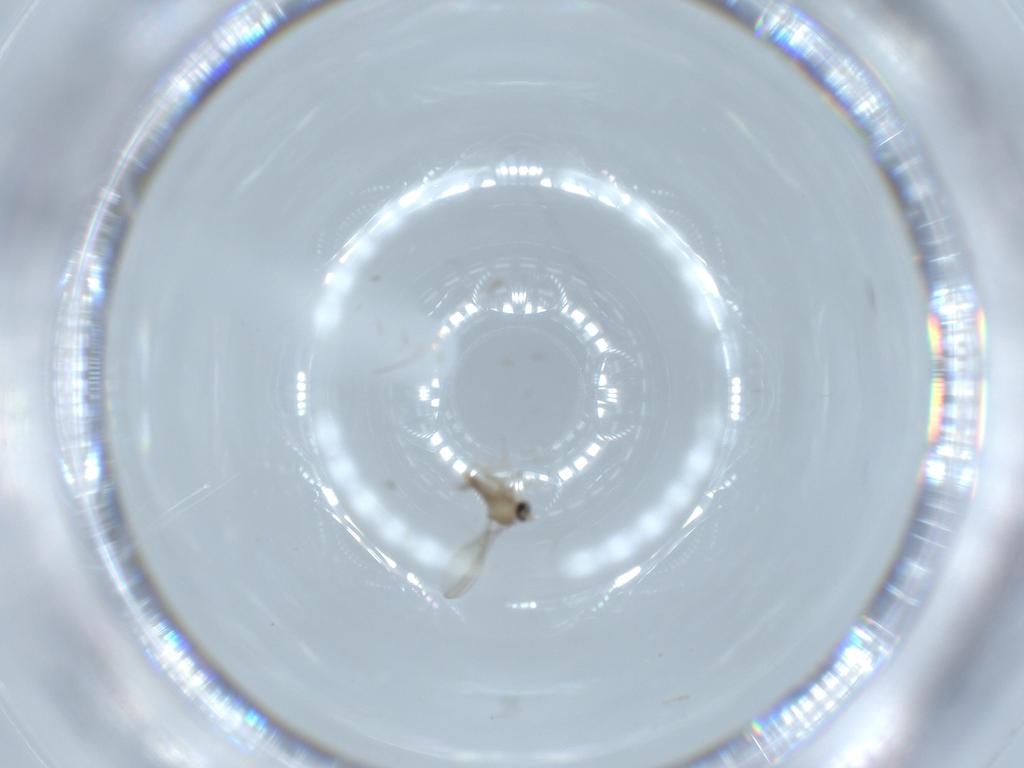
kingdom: Animalia
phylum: Arthropoda
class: Insecta
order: Diptera
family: Cecidomyiidae
